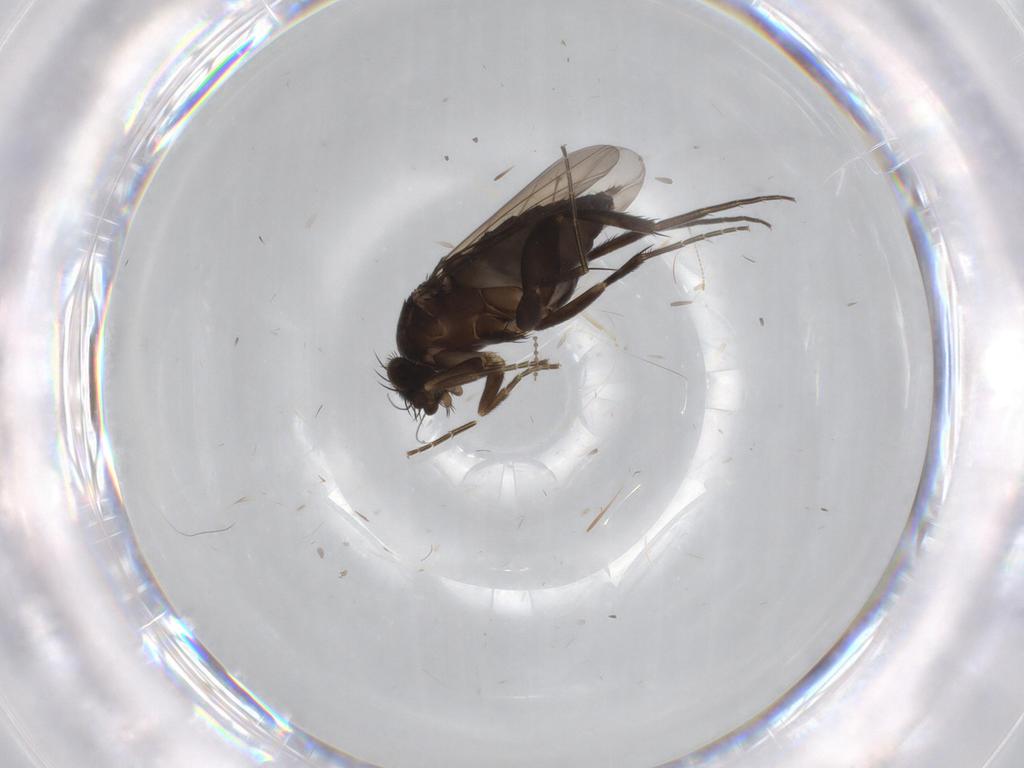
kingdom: Animalia
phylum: Arthropoda
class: Insecta
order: Diptera
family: Phoridae
